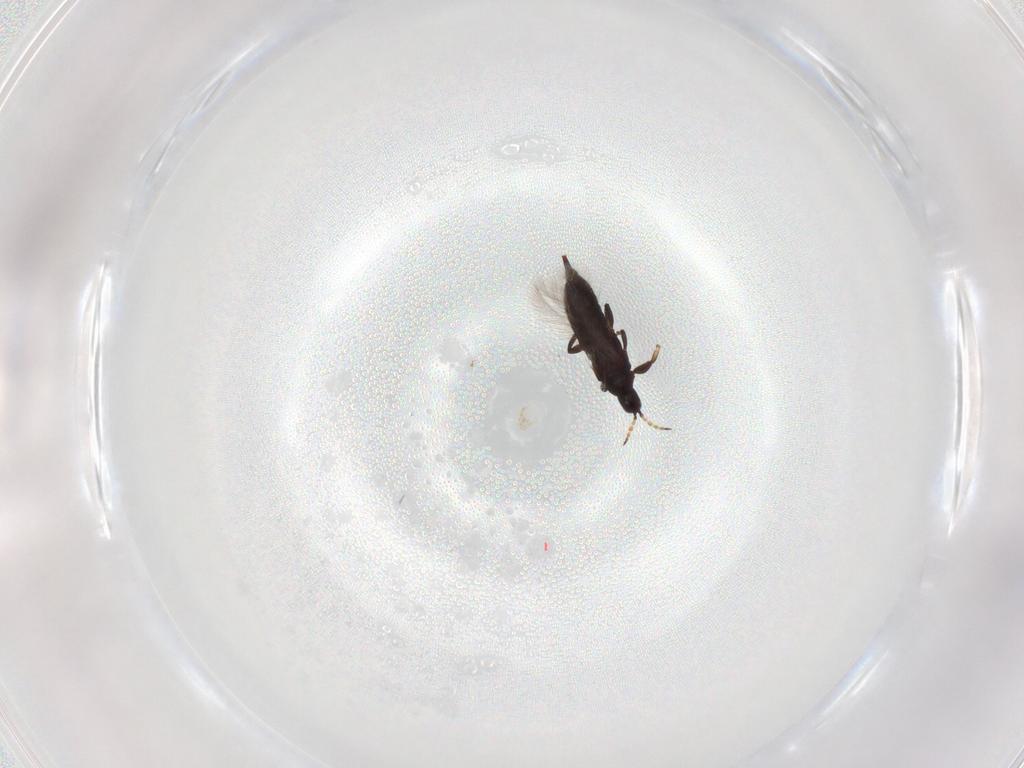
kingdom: Animalia
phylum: Arthropoda
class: Insecta
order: Thysanoptera
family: Phlaeothripidae
